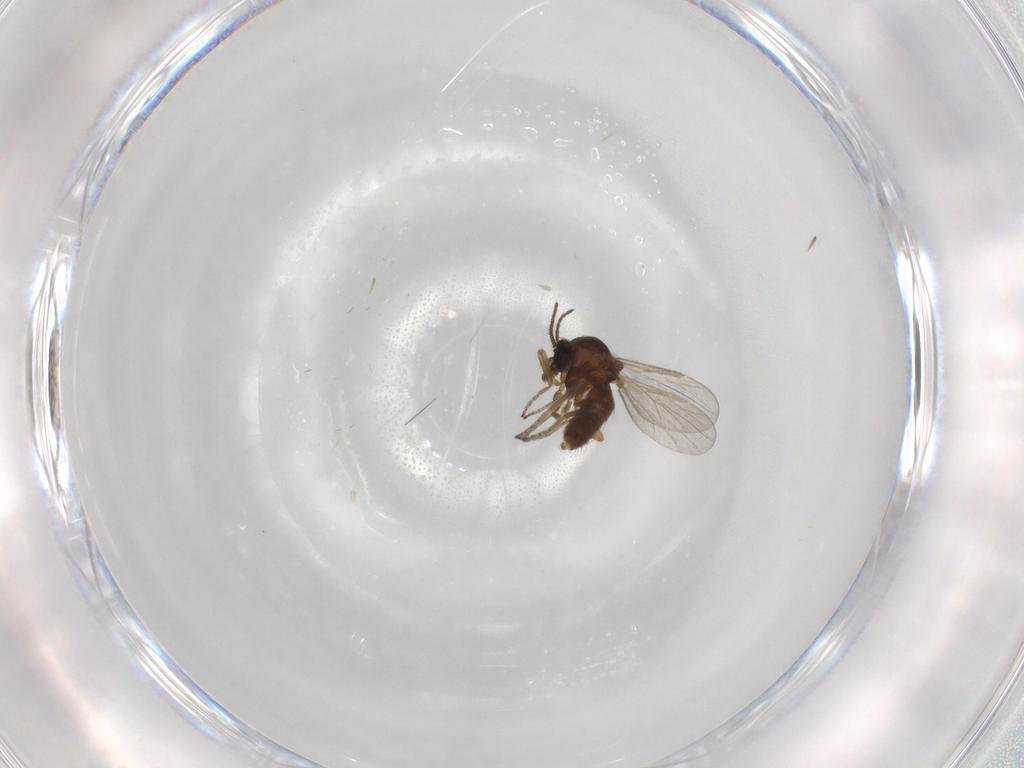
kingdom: Animalia
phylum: Arthropoda
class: Insecta
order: Diptera
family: Ceratopogonidae
